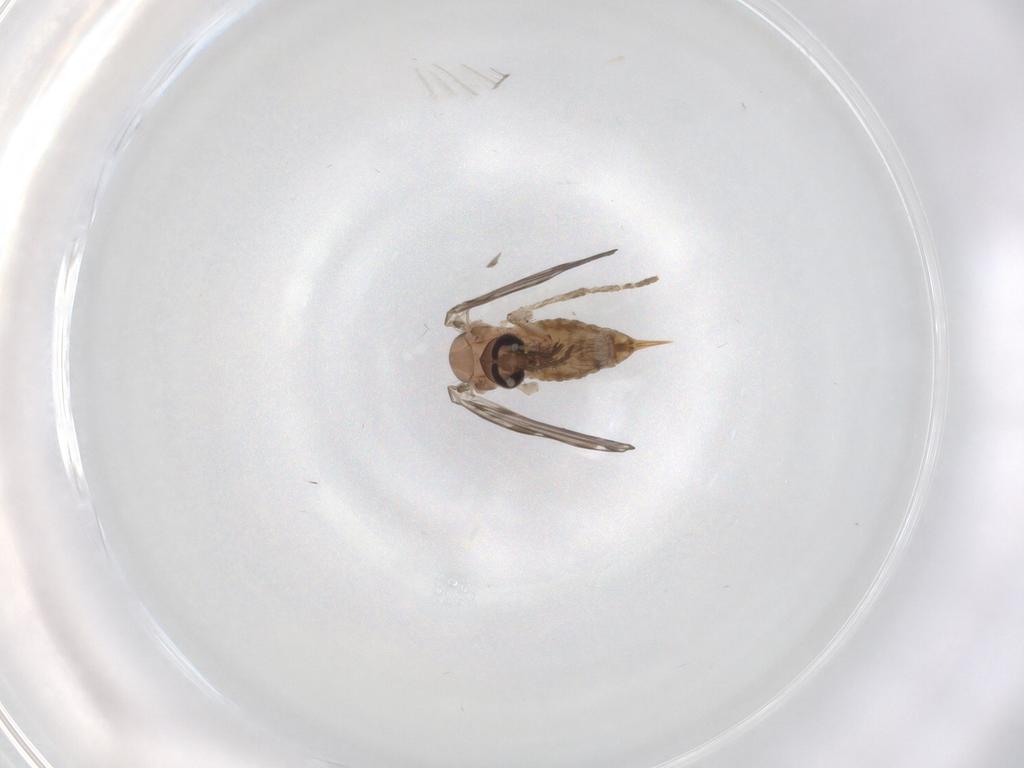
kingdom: Animalia
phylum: Arthropoda
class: Insecta
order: Diptera
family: Psychodidae
